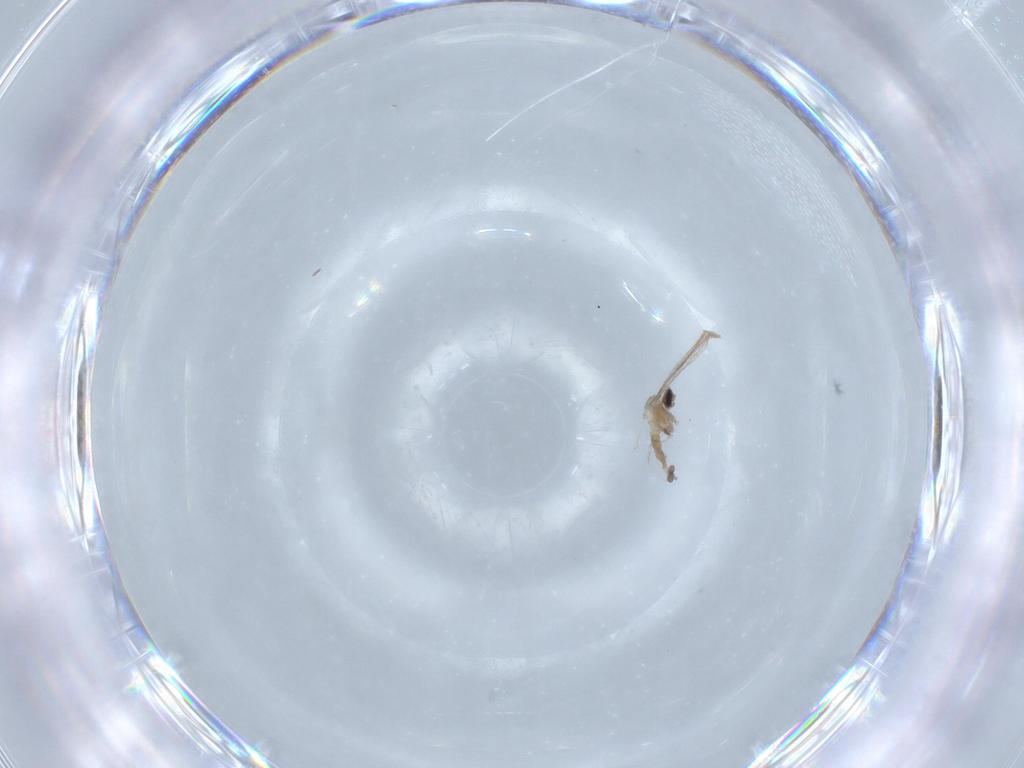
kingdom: Animalia
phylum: Arthropoda
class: Insecta
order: Diptera
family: Cecidomyiidae
